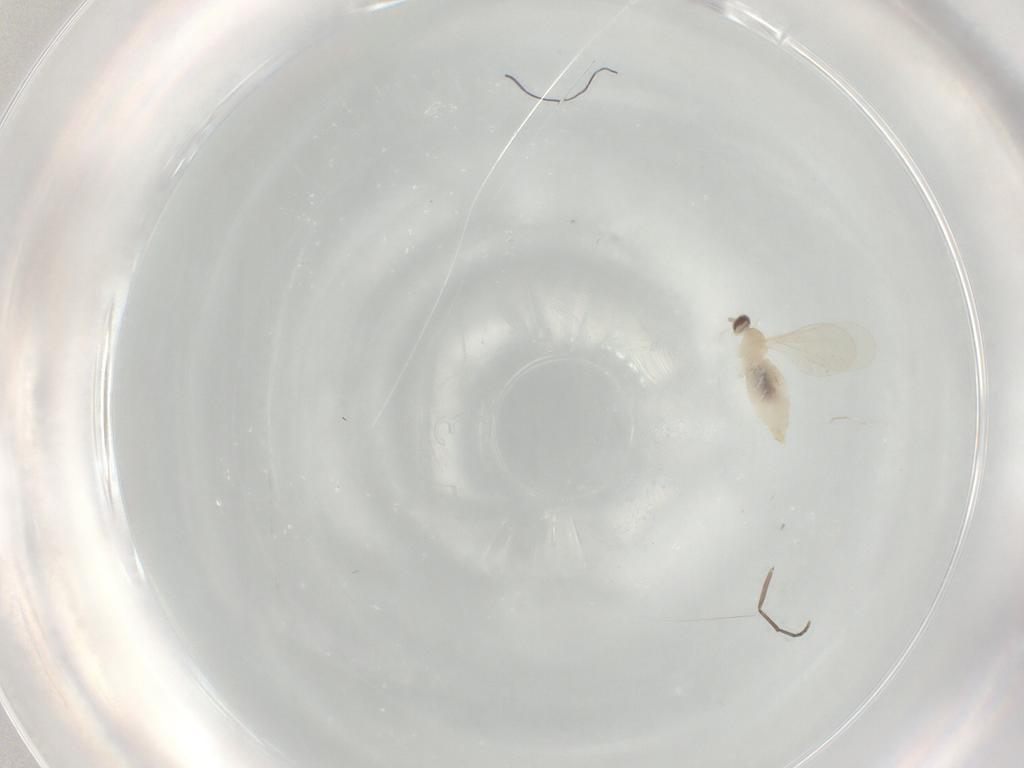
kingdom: Animalia
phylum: Arthropoda
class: Insecta
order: Diptera
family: Cecidomyiidae
